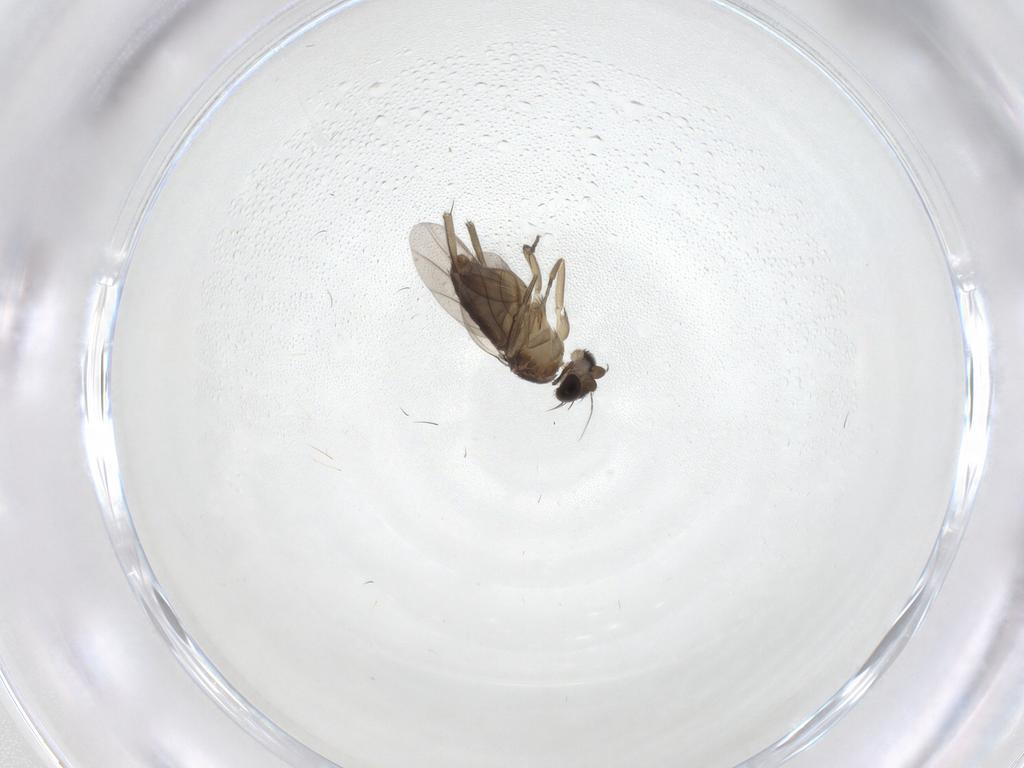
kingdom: Animalia
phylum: Arthropoda
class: Insecta
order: Diptera
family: Phoridae
